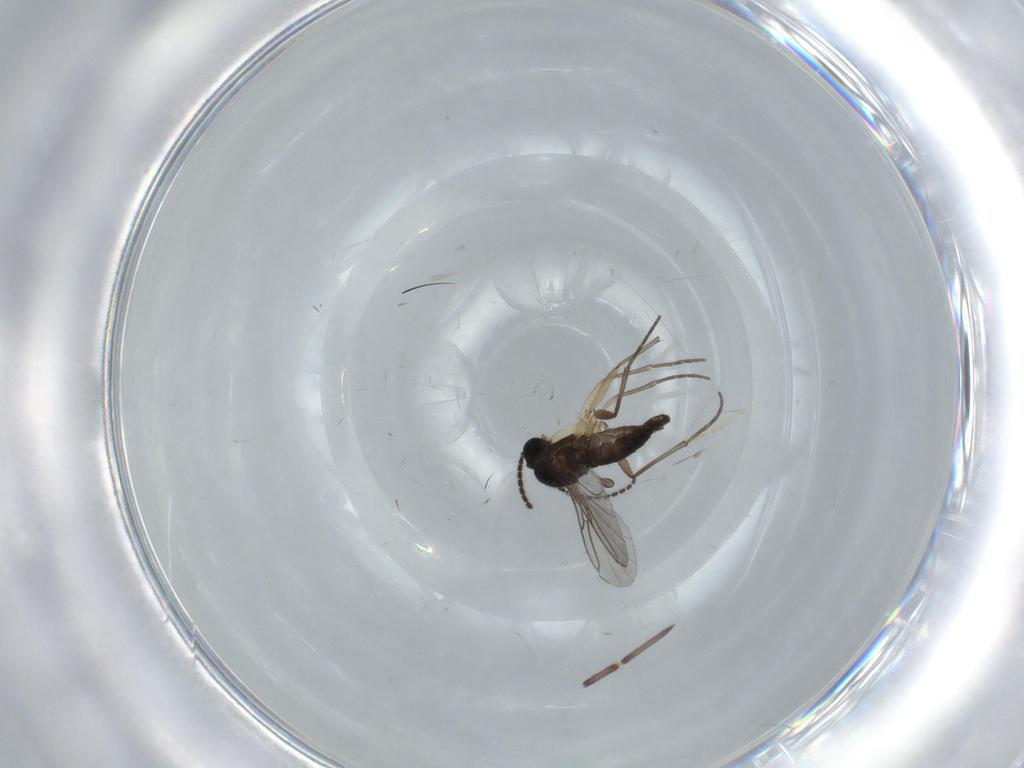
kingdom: Animalia
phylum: Arthropoda
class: Insecta
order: Diptera
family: Sciaridae
